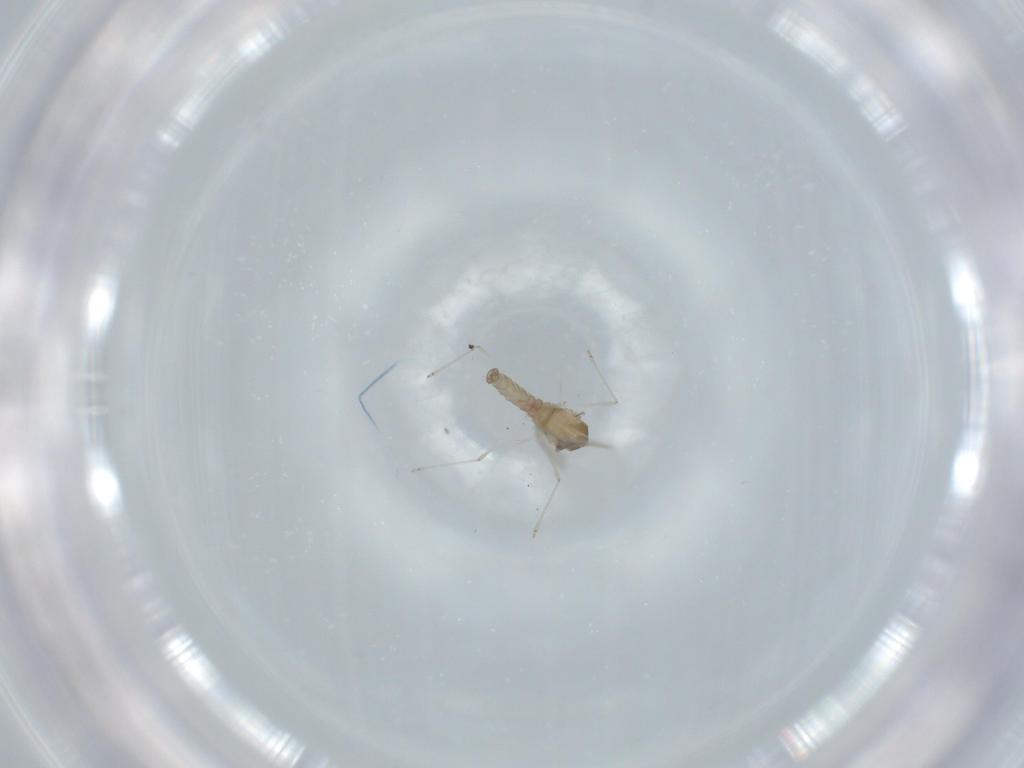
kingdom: Animalia
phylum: Arthropoda
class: Insecta
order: Diptera
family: Cecidomyiidae
